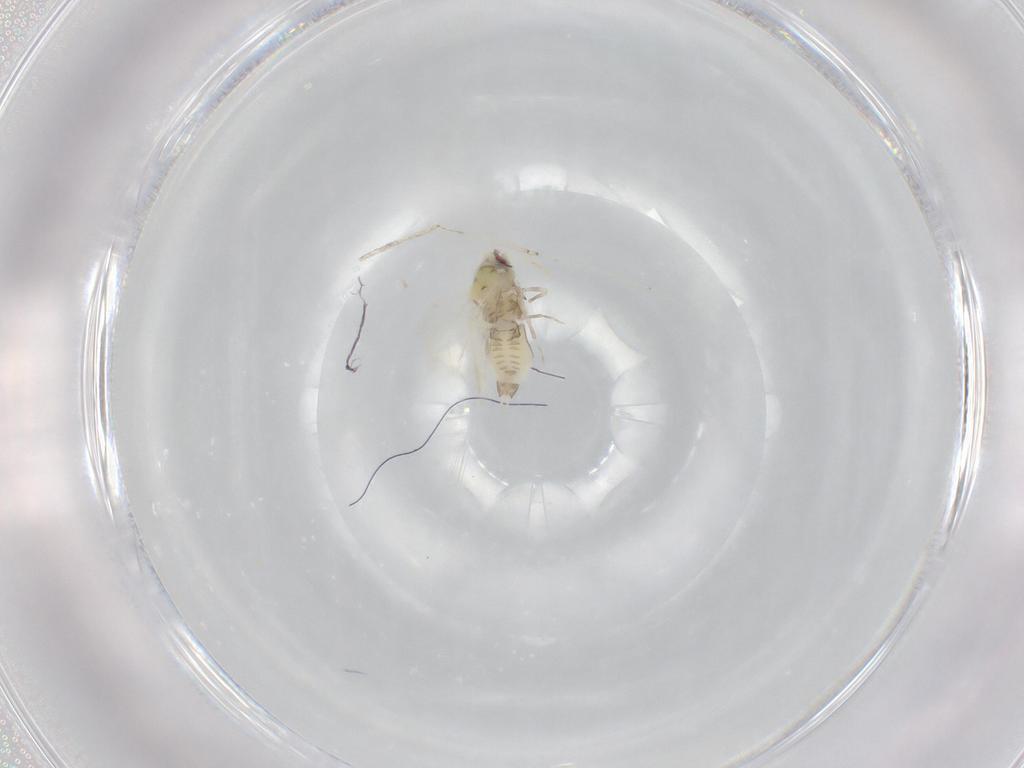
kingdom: Animalia
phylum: Arthropoda
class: Insecta
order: Hemiptera
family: Aleyrodidae
